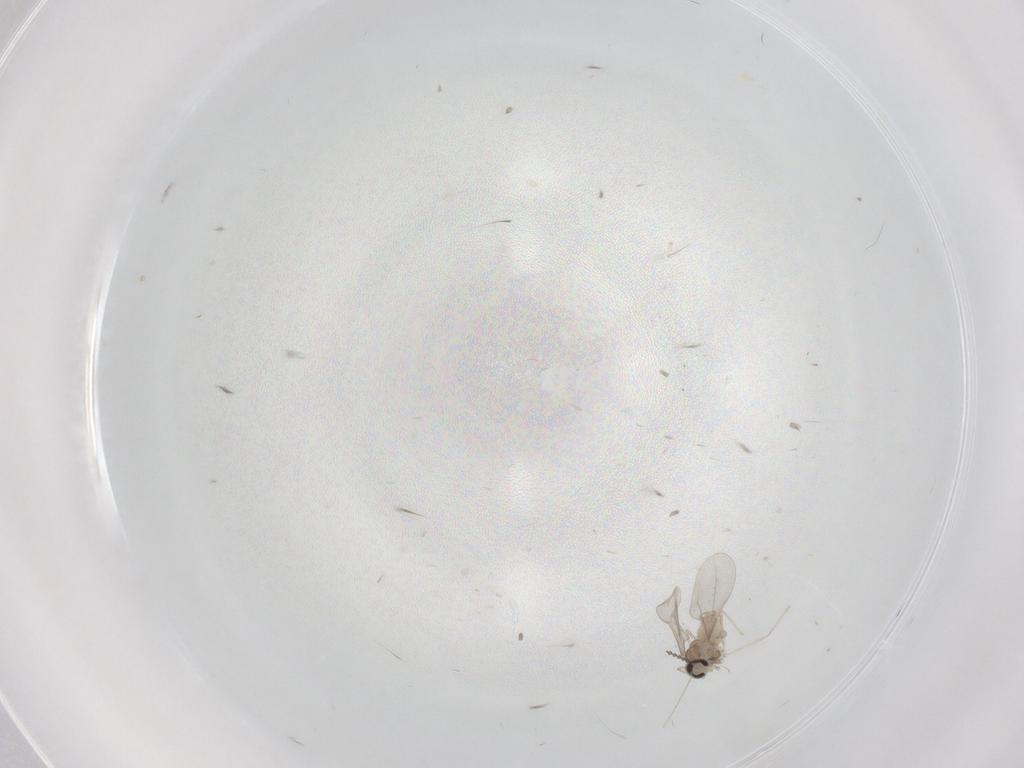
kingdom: Animalia
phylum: Arthropoda
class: Insecta
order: Diptera
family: Cecidomyiidae
